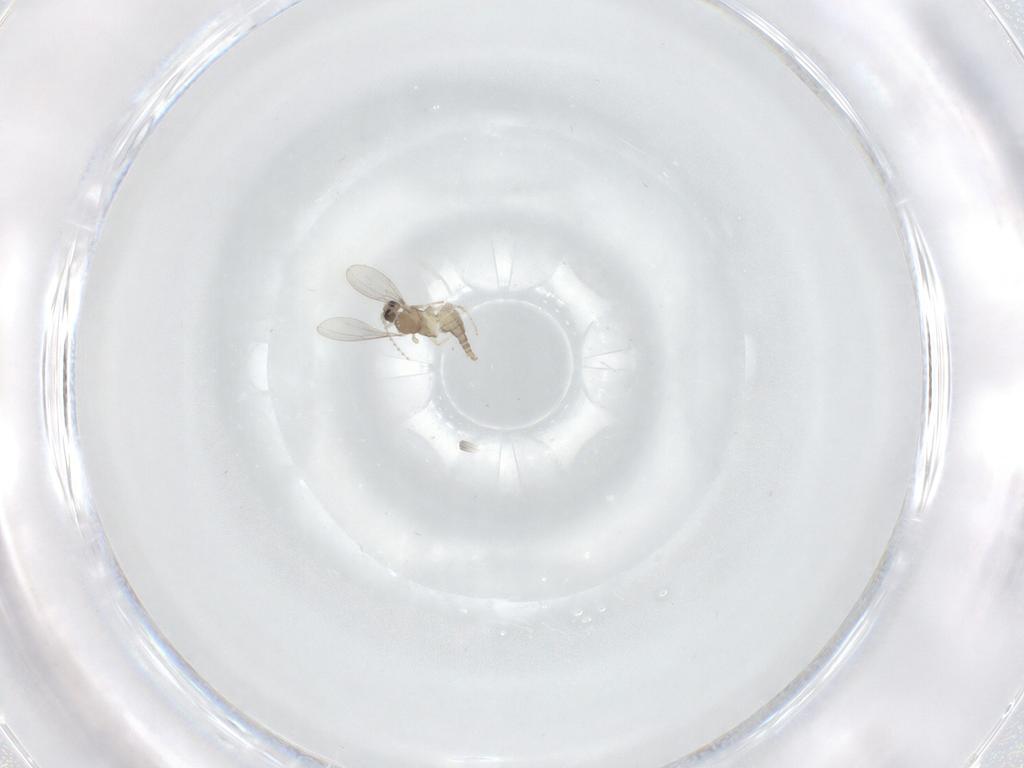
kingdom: Animalia
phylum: Arthropoda
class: Insecta
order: Diptera
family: Cecidomyiidae
